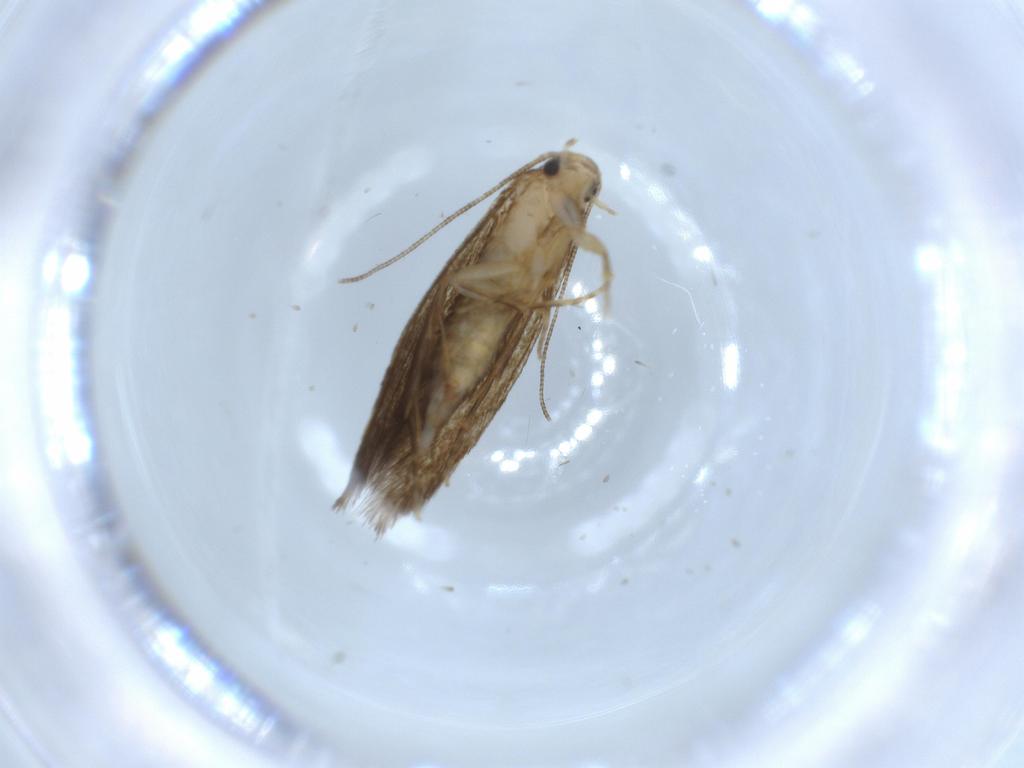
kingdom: Animalia
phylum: Arthropoda
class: Insecta
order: Lepidoptera
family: Tineidae
